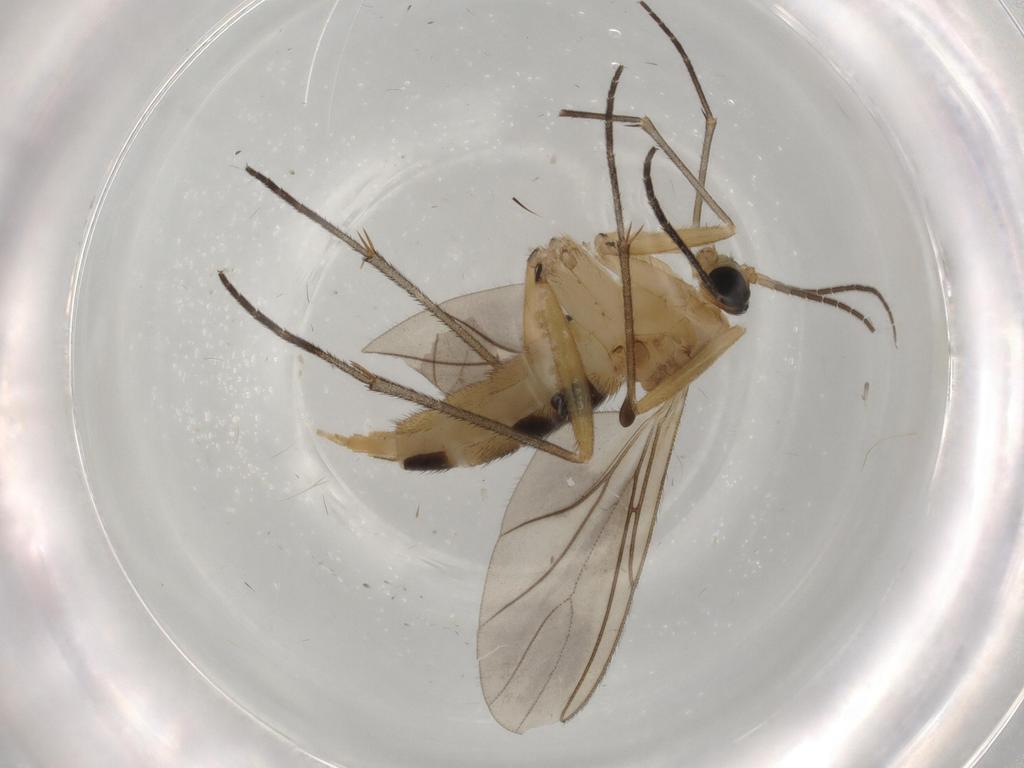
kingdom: Animalia
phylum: Arthropoda
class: Insecta
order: Diptera
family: Sciaridae
